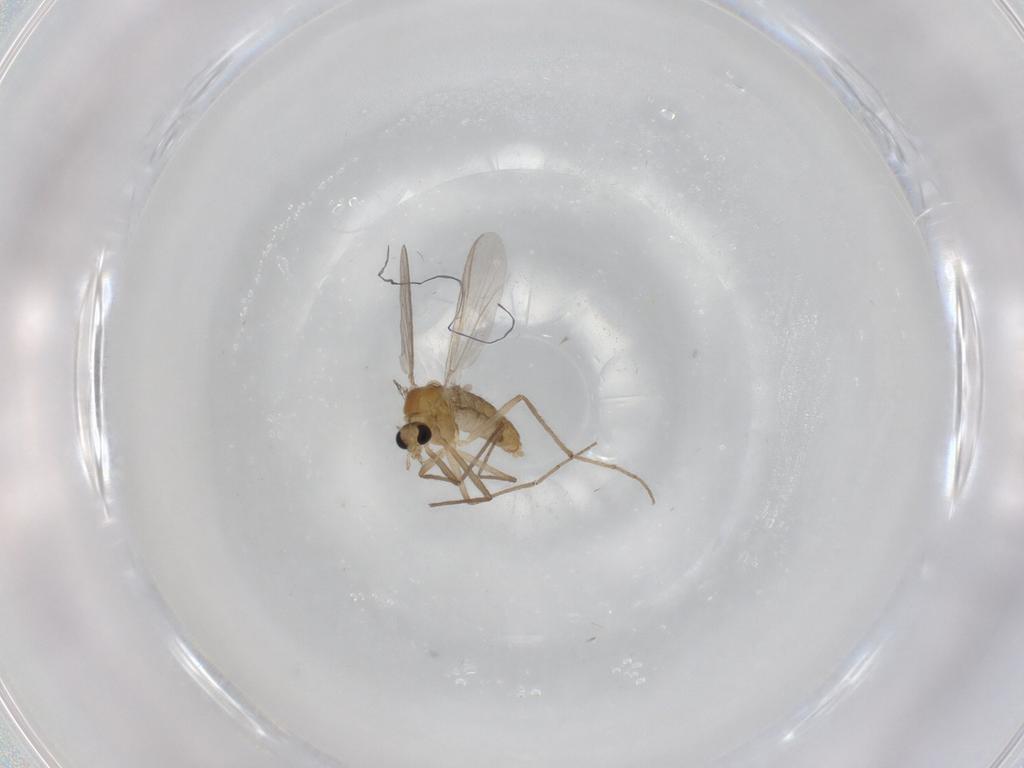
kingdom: Animalia
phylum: Arthropoda
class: Insecta
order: Diptera
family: Chironomidae
